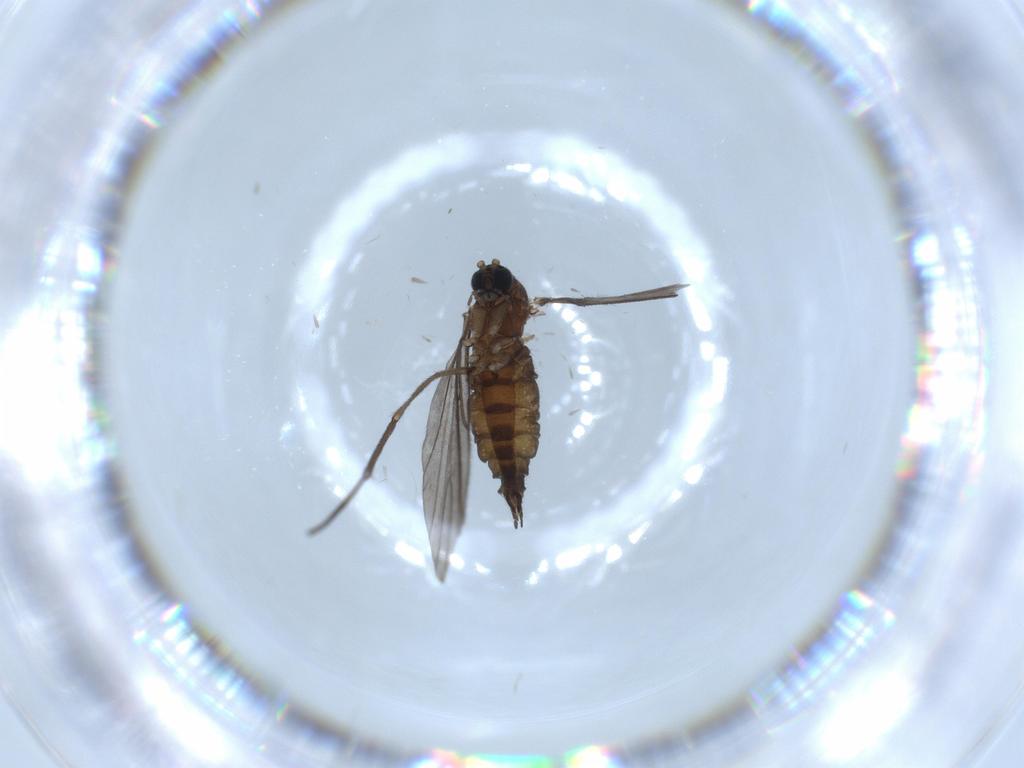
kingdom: Animalia
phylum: Arthropoda
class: Insecta
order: Diptera
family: Sciaridae
